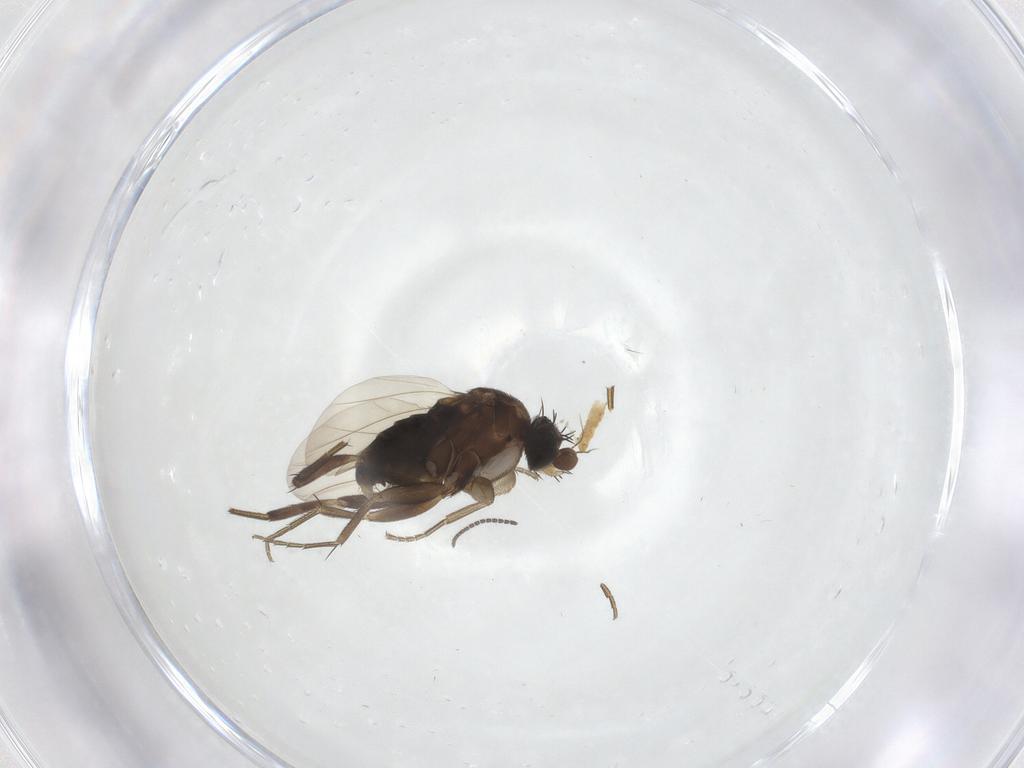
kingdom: Animalia
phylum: Arthropoda
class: Insecta
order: Diptera
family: Phoridae
